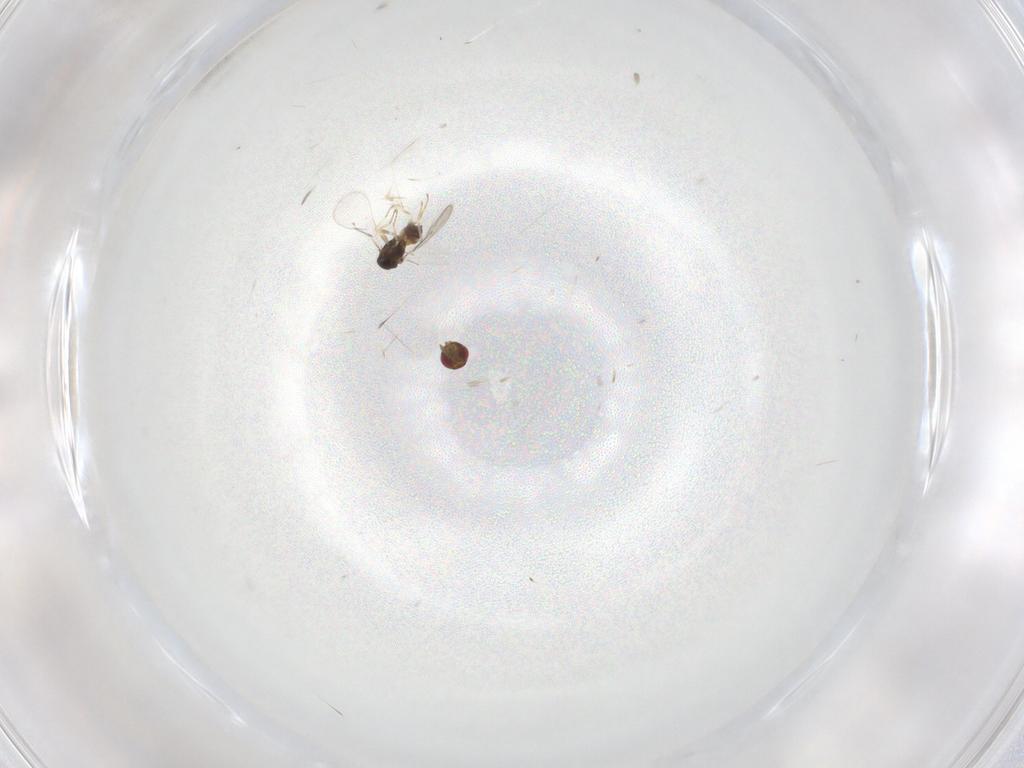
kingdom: Animalia
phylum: Arthropoda
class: Insecta
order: Hymenoptera
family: Eulophidae
